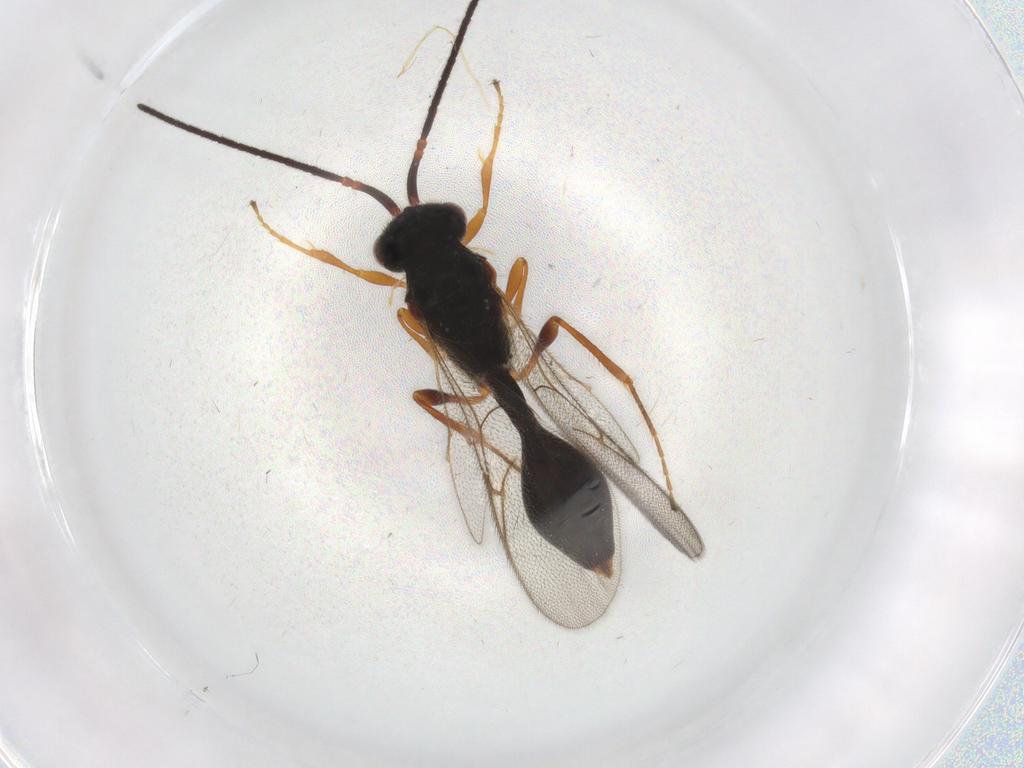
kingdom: Animalia
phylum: Arthropoda
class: Insecta
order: Hymenoptera
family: Diapriidae
